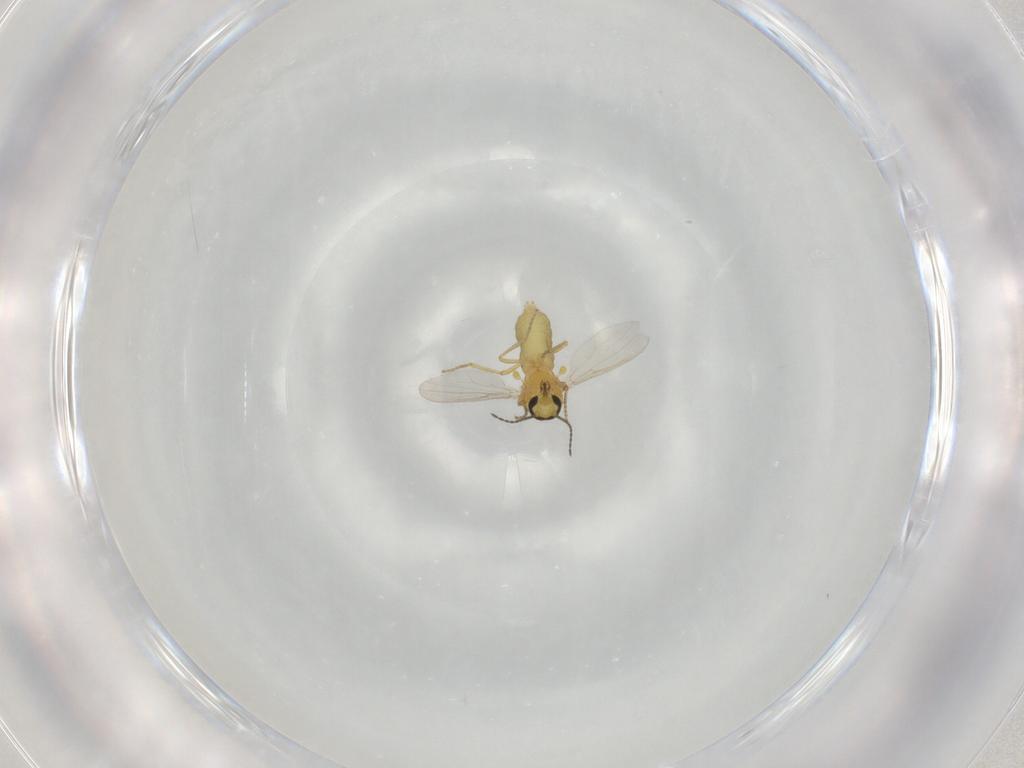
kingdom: Animalia
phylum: Arthropoda
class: Insecta
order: Diptera
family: Ceratopogonidae
